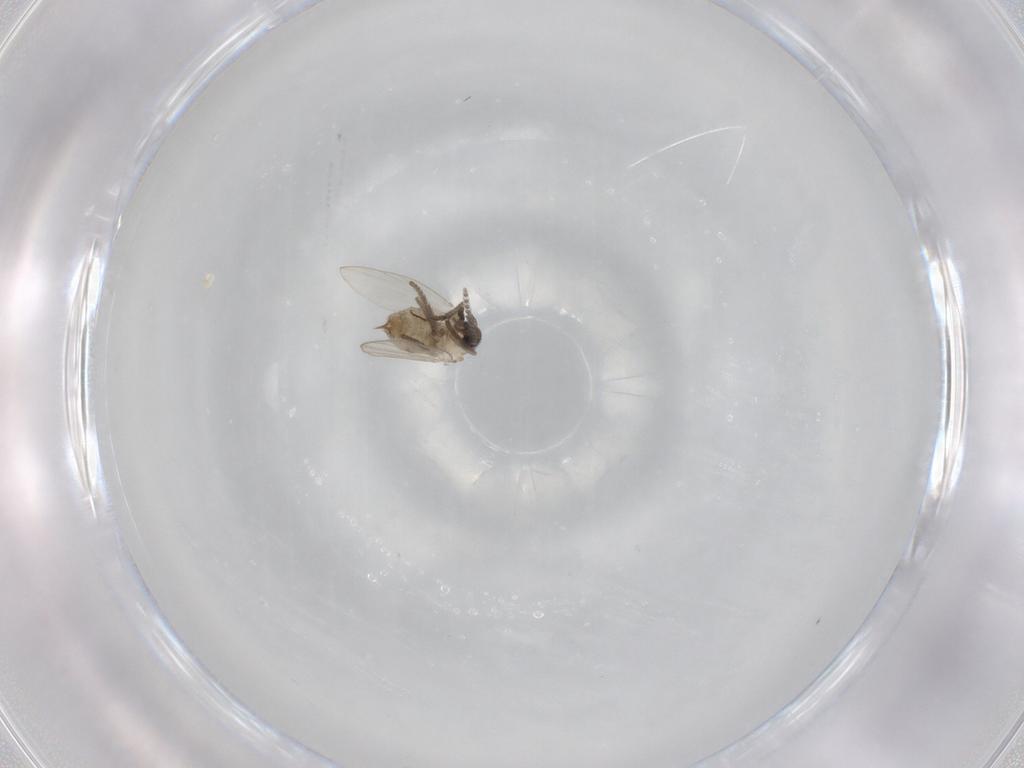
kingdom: Animalia
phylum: Arthropoda
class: Insecta
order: Diptera
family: Psychodidae
